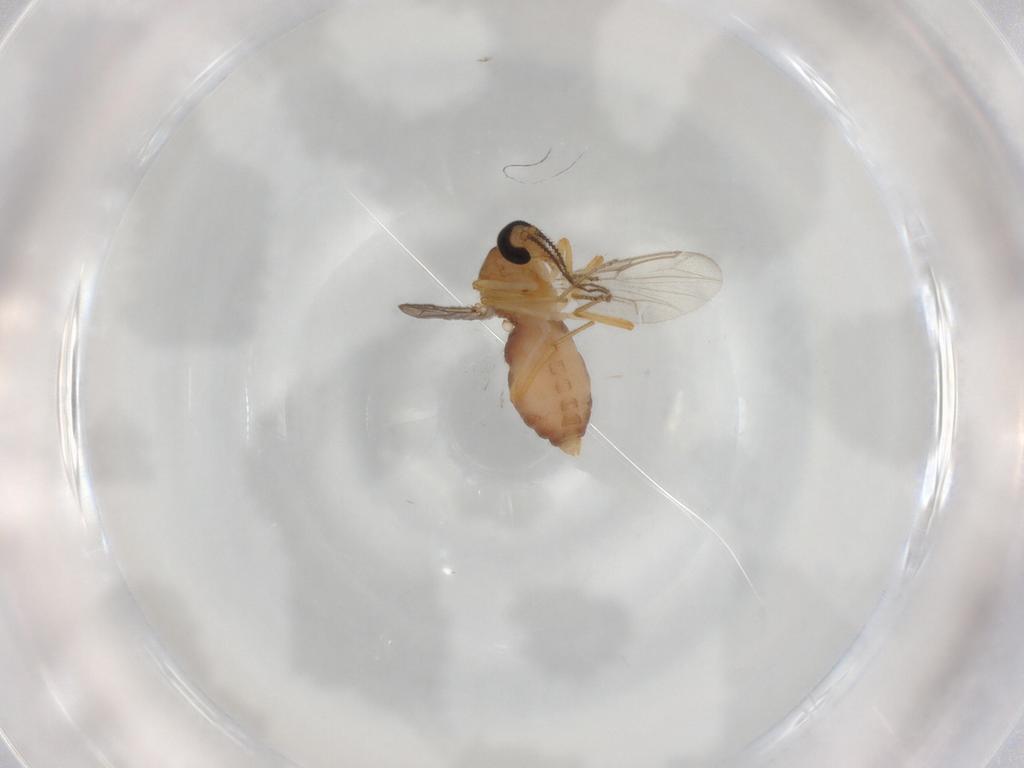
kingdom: Animalia
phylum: Arthropoda
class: Insecta
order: Diptera
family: Ceratopogonidae
